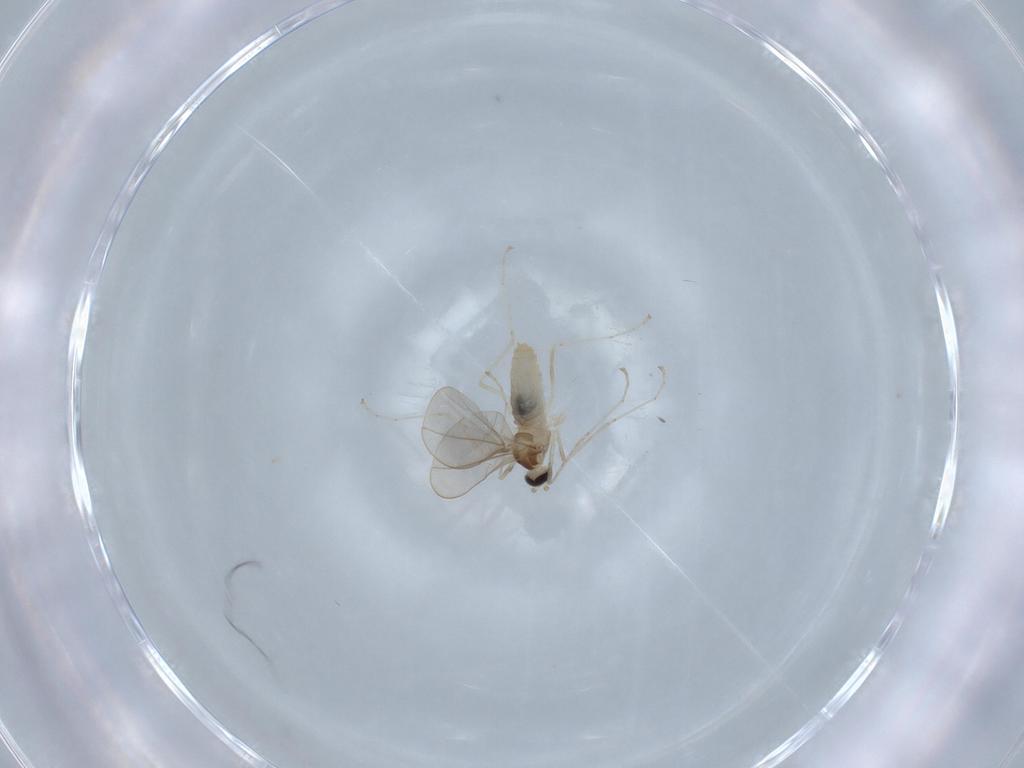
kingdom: Animalia
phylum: Arthropoda
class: Insecta
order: Diptera
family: Cecidomyiidae
